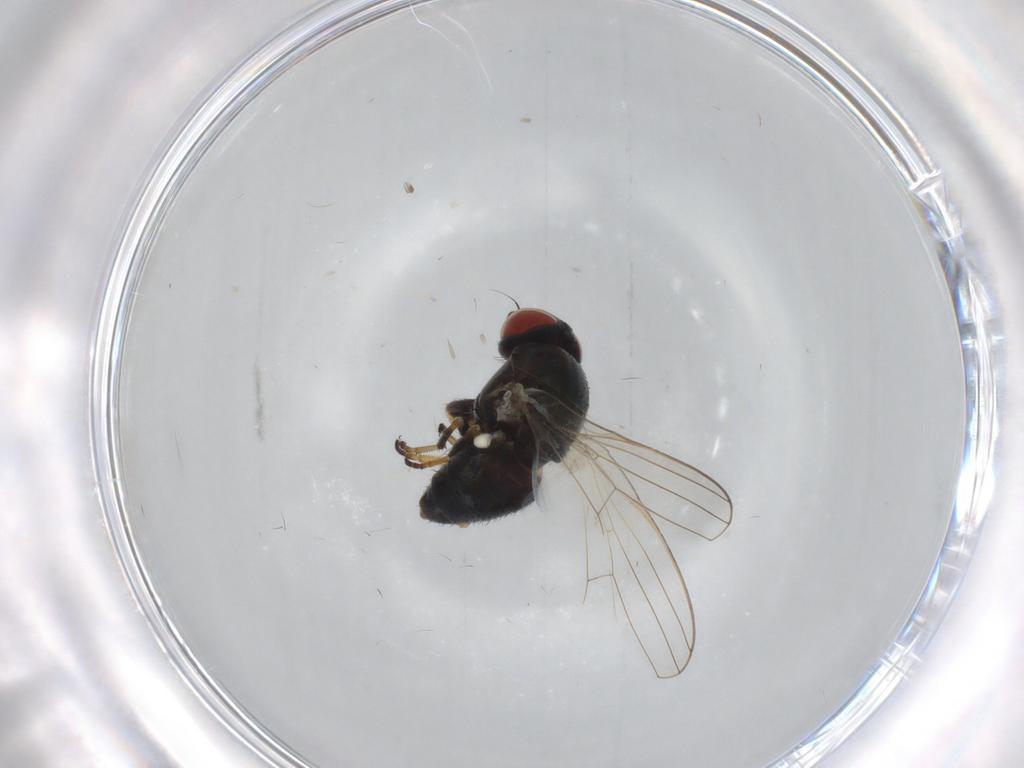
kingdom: Animalia
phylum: Arthropoda
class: Insecta
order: Diptera
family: Chamaemyiidae
